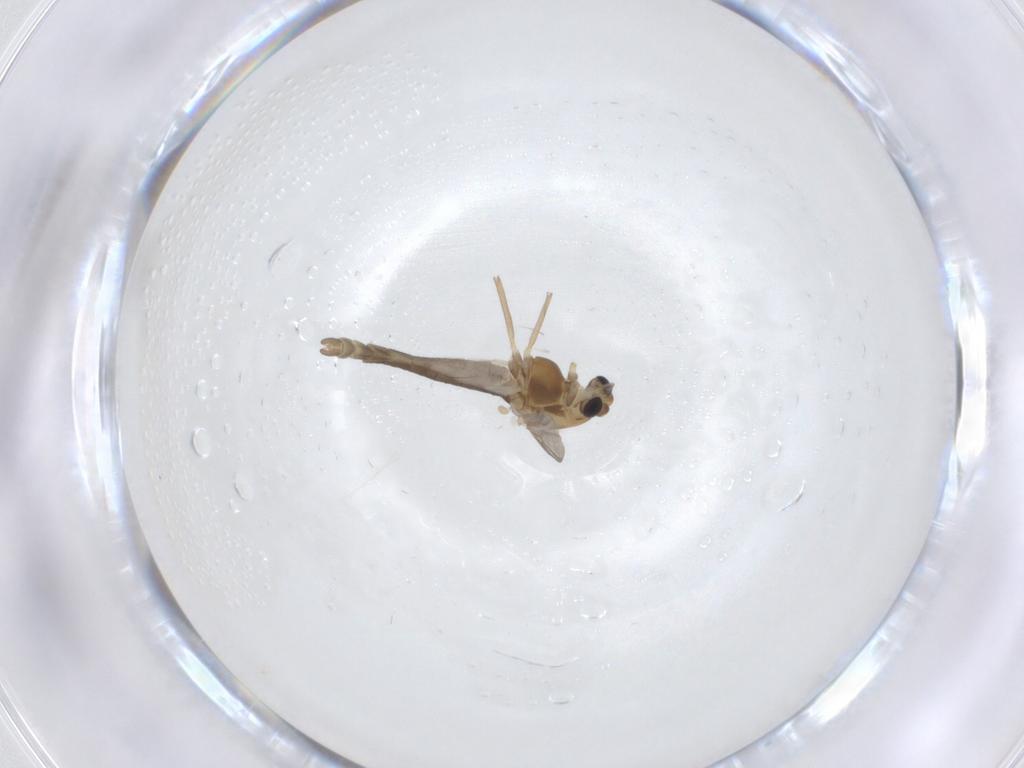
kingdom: Animalia
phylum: Arthropoda
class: Insecta
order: Diptera
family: Chironomidae
